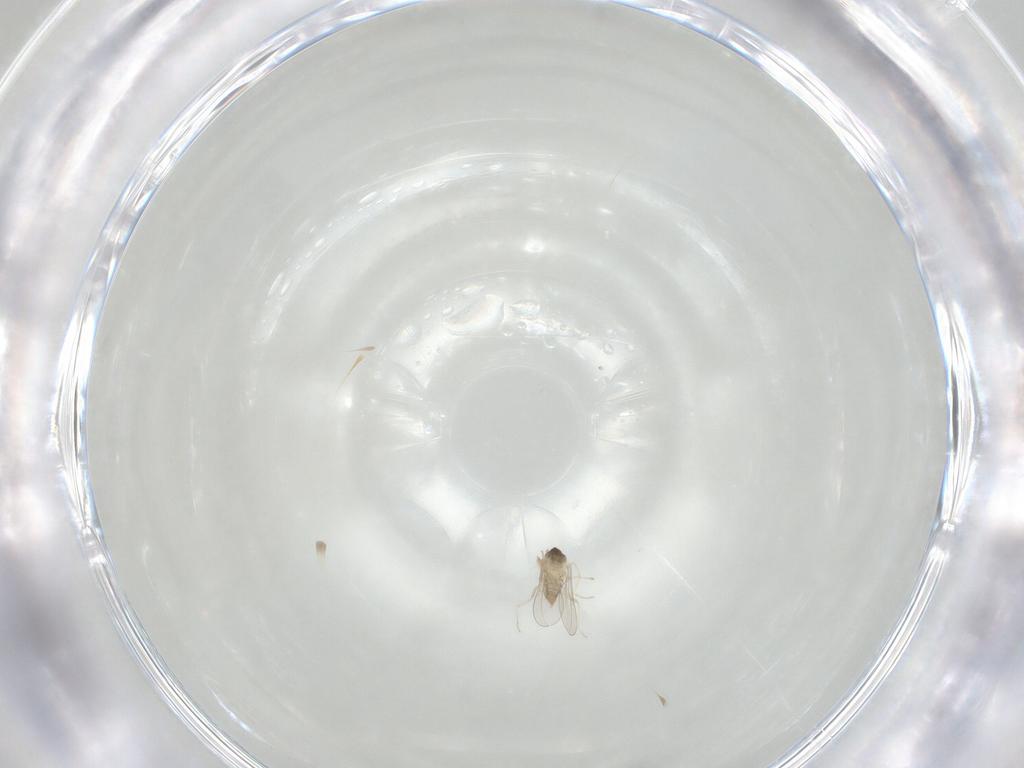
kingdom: Animalia
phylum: Arthropoda
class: Insecta
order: Diptera
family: Cecidomyiidae
